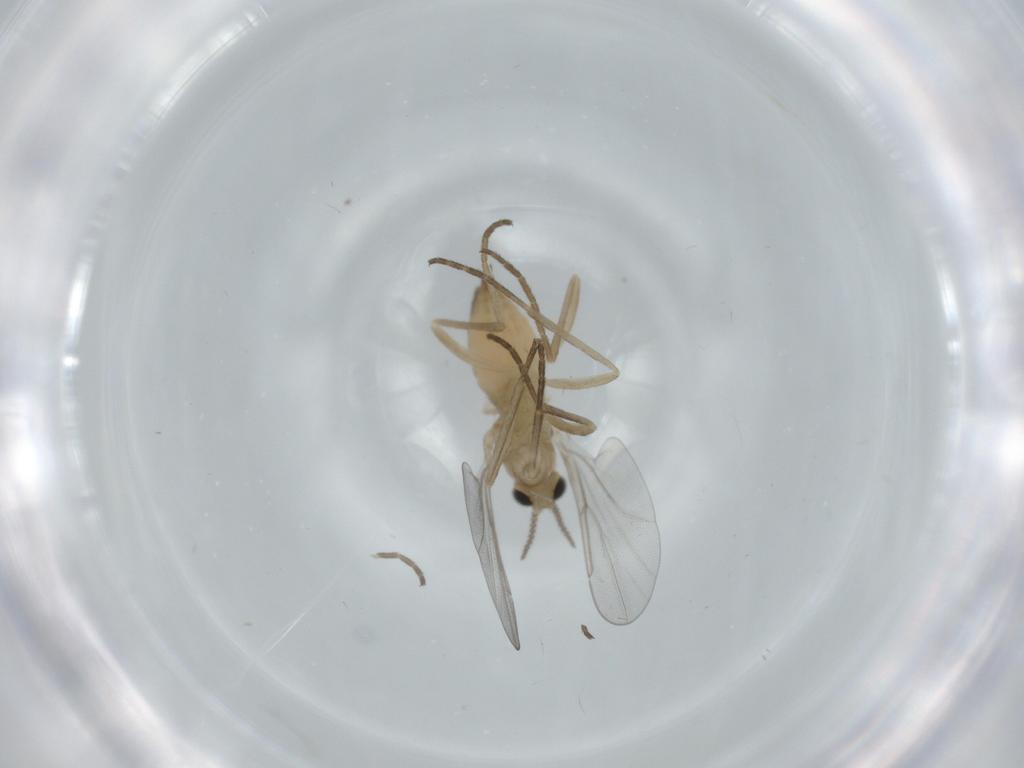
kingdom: Animalia
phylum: Arthropoda
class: Insecta
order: Diptera
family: Cecidomyiidae
